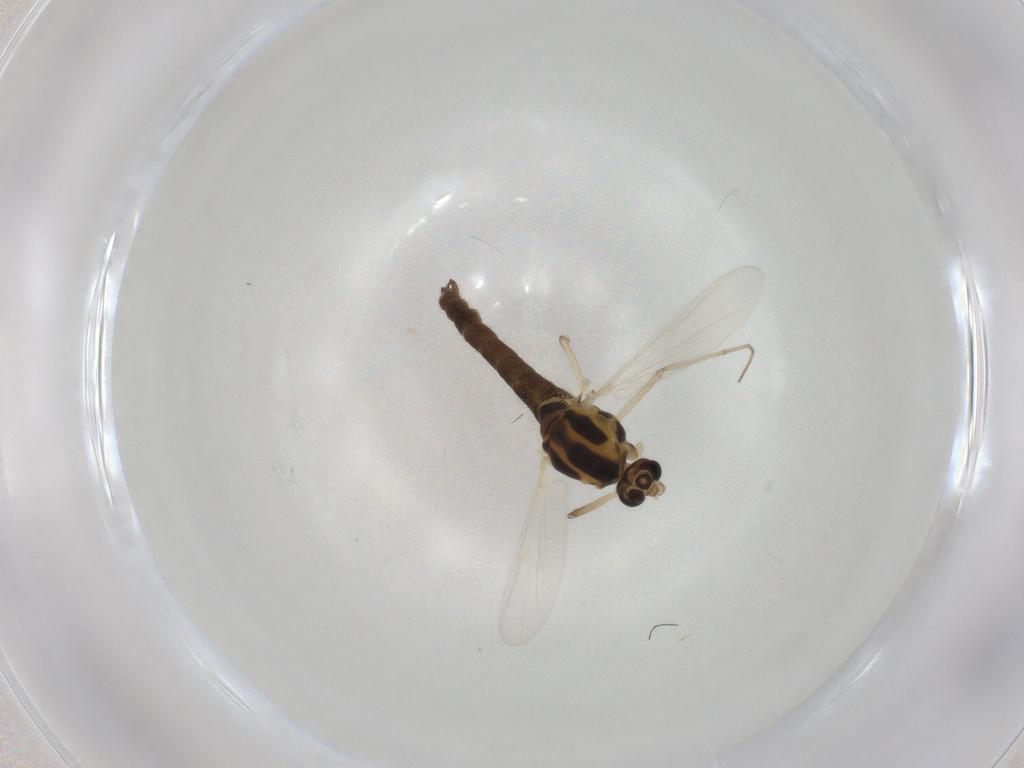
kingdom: Animalia
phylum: Arthropoda
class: Insecta
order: Diptera
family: Chironomidae
